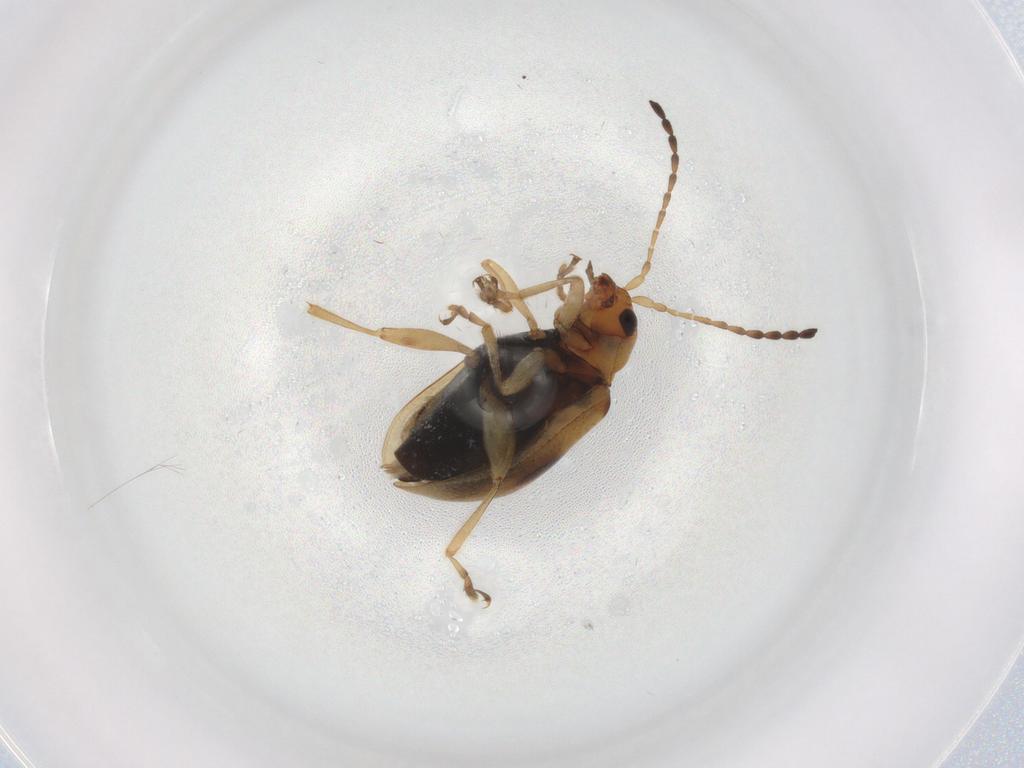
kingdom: Animalia
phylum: Arthropoda
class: Insecta
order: Coleoptera
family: Chrysomelidae
